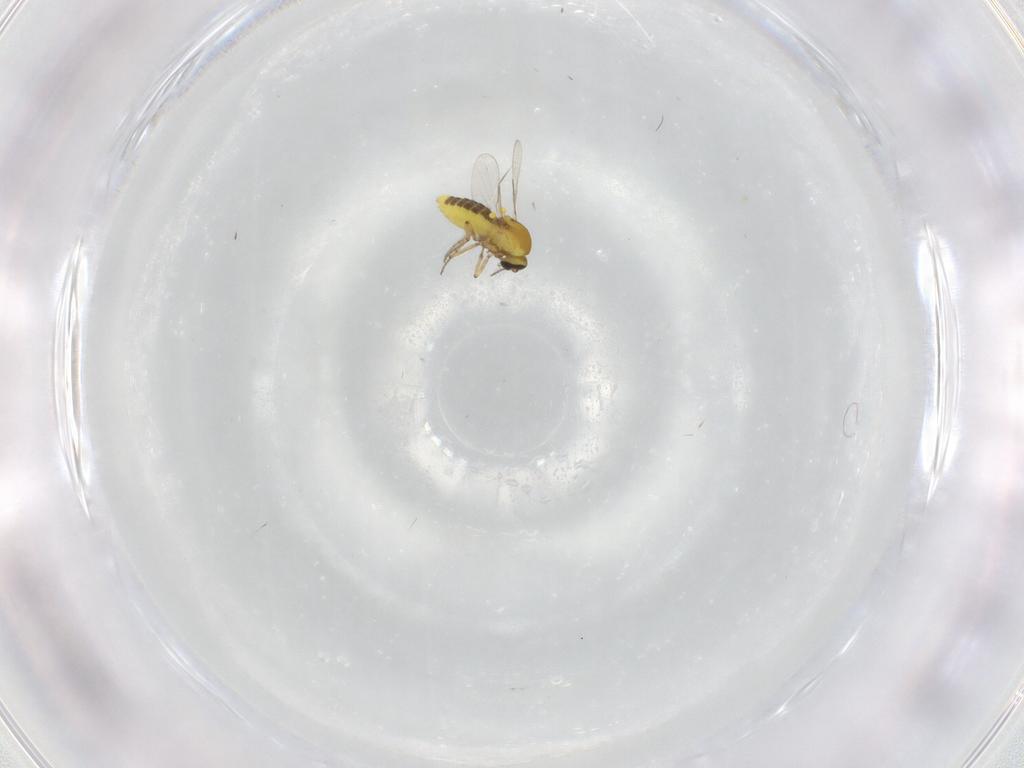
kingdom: Animalia
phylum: Arthropoda
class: Insecta
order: Diptera
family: Ceratopogonidae
